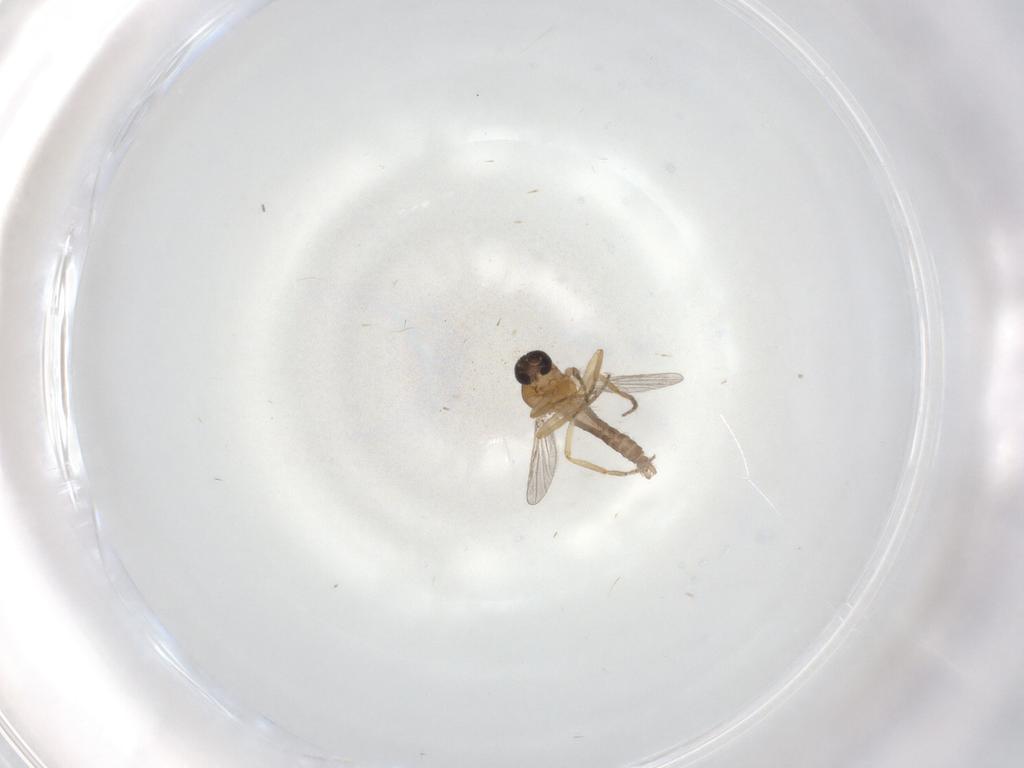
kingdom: Animalia
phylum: Arthropoda
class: Insecta
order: Diptera
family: Ceratopogonidae
